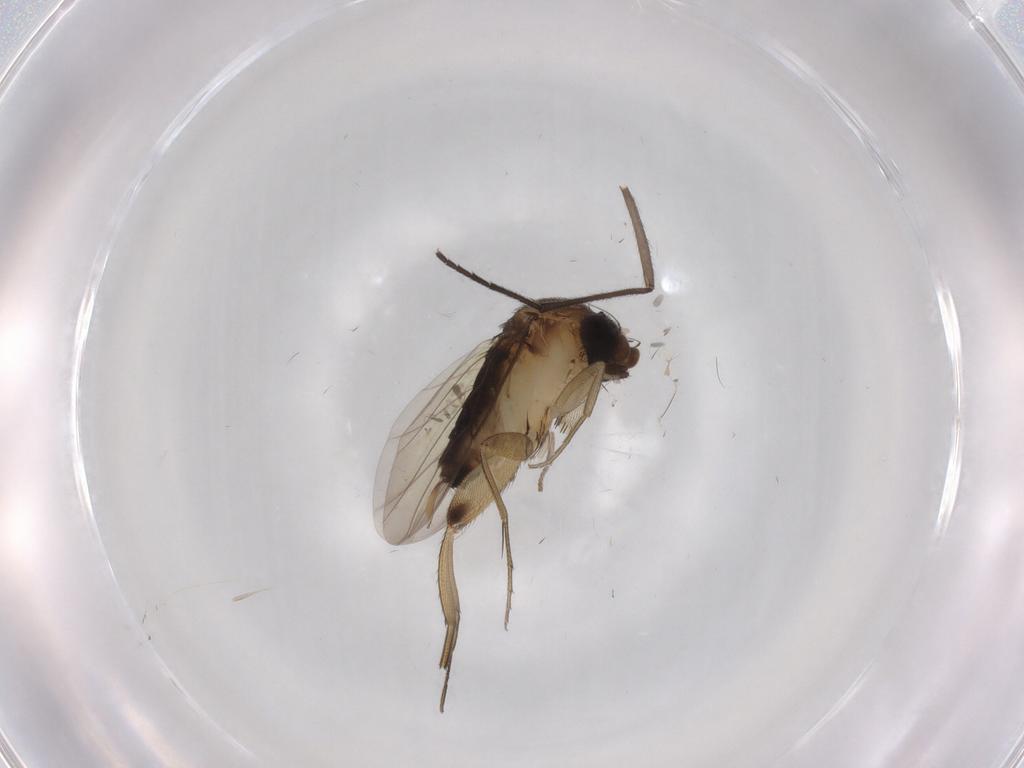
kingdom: Animalia
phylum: Arthropoda
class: Insecta
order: Diptera
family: Phoridae
